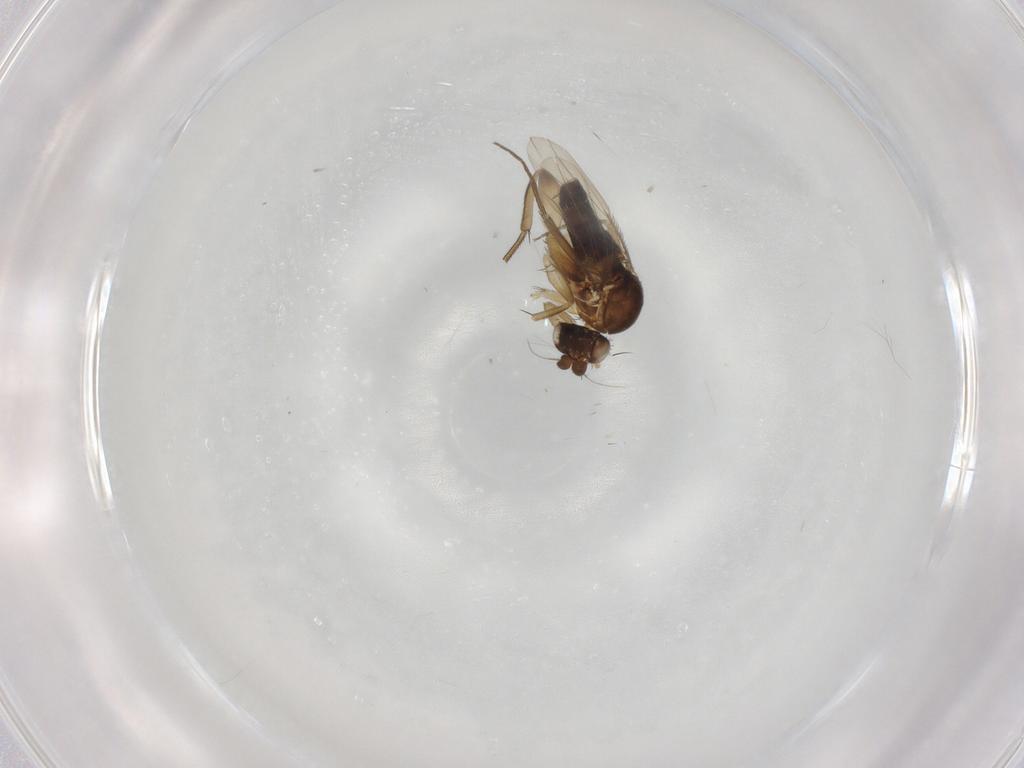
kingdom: Animalia
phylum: Arthropoda
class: Insecta
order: Diptera
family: Phoridae
